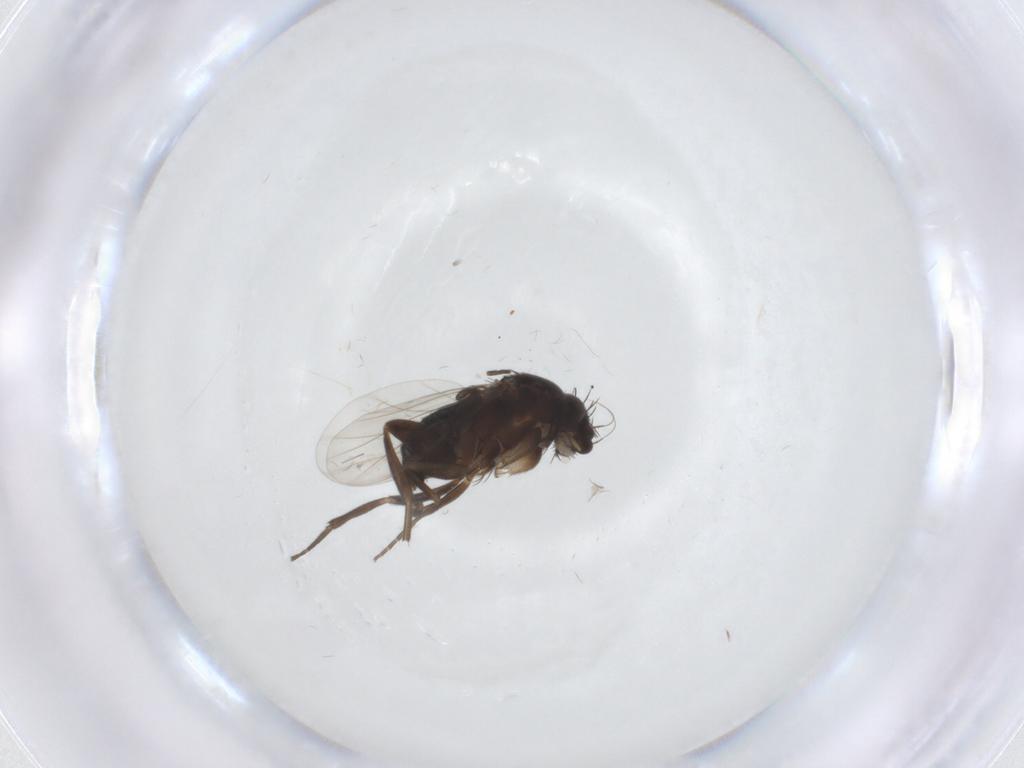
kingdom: Animalia
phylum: Arthropoda
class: Insecta
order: Diptera
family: Phoridae
